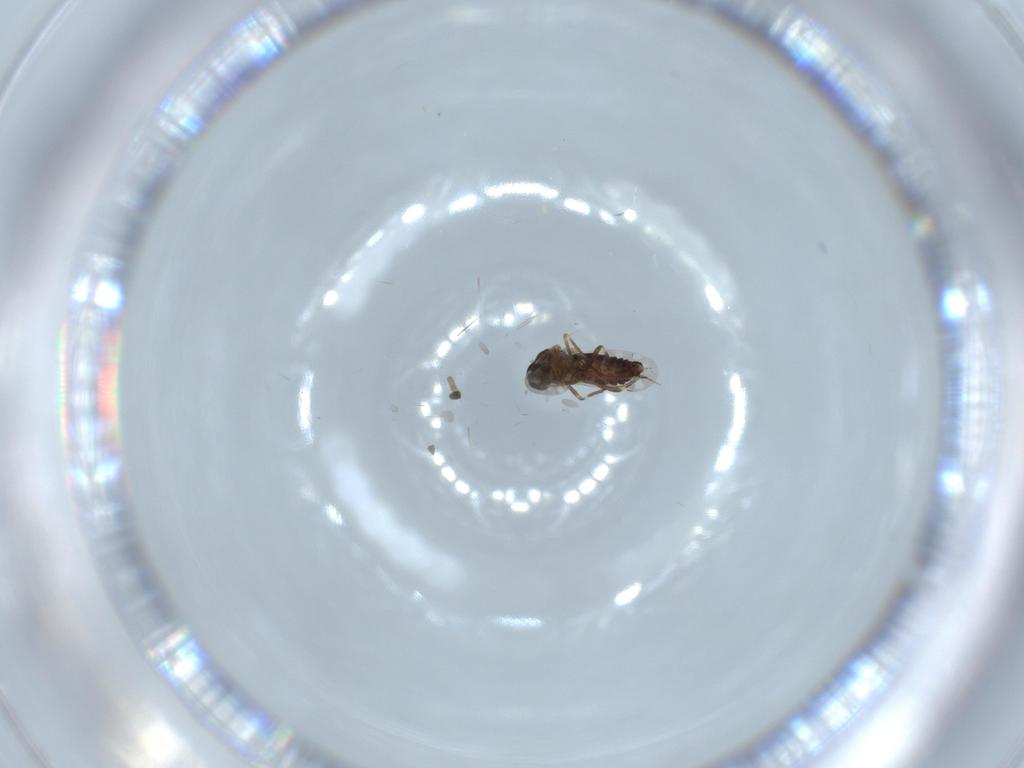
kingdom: Animalia
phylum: Arthropoda
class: Insecta
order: Diptera
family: Ceratopogonidae
